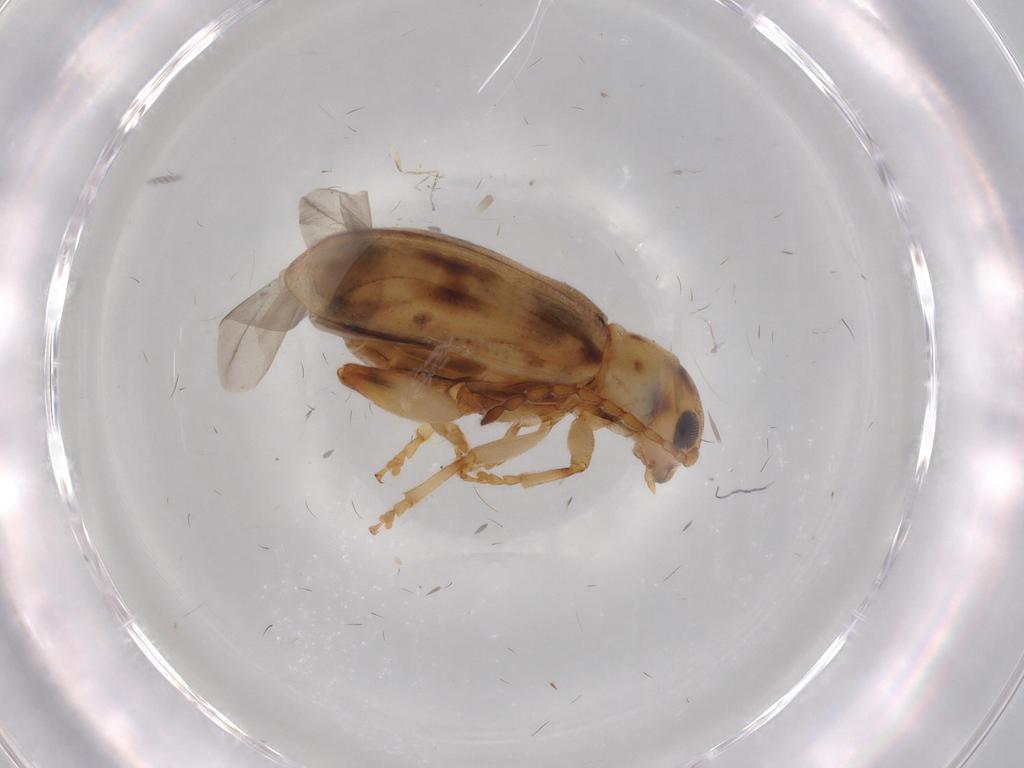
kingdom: Animalia
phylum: Arthropoda
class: Insecta
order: Coleoptera
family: Chrysomelidae
